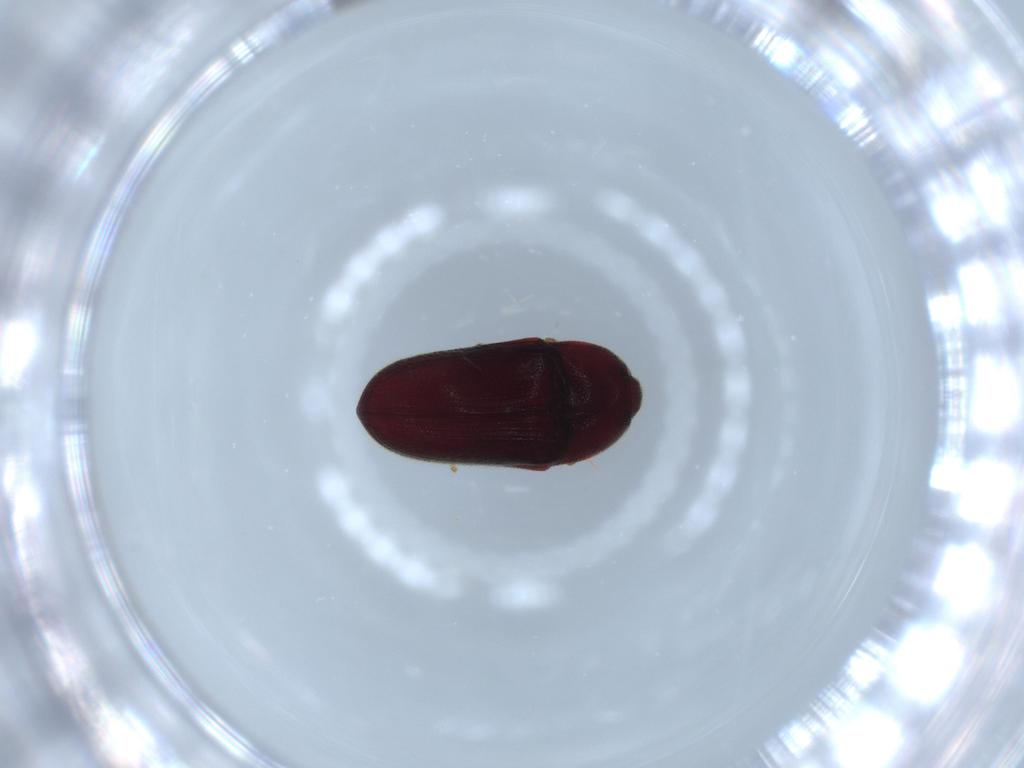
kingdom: Animalia
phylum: Arthropoda
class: Insecta
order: Coleoptera
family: Throscidae
